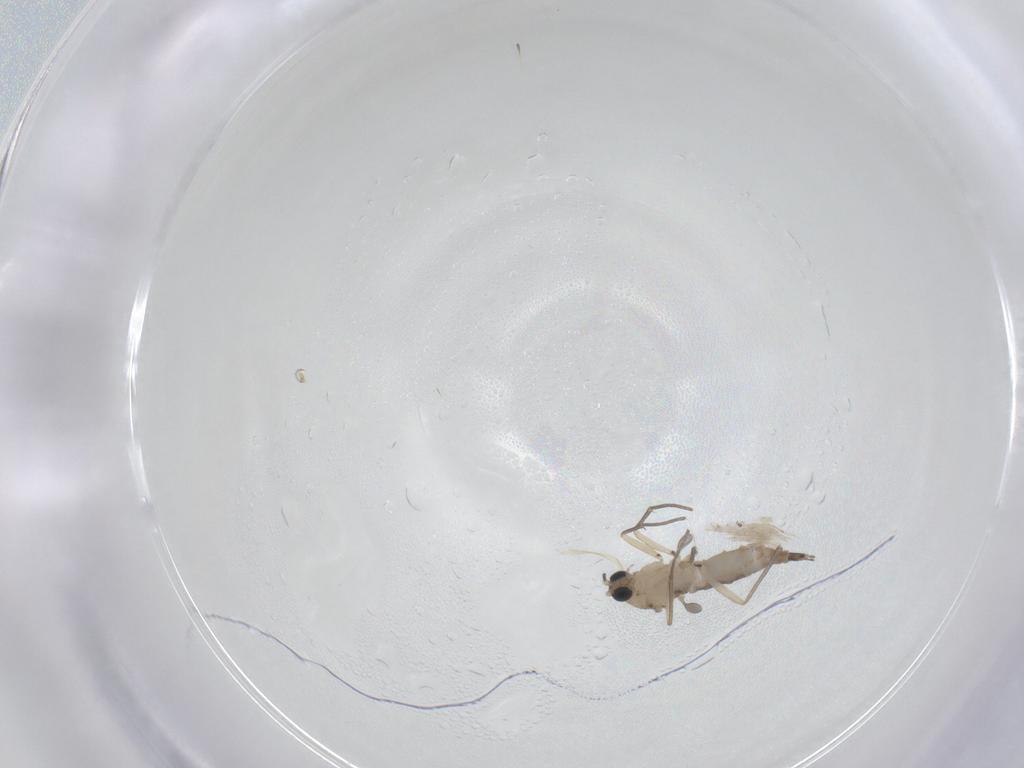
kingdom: Animalia
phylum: Arthropoda
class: Insecta
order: Diptera
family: Sciaridae
